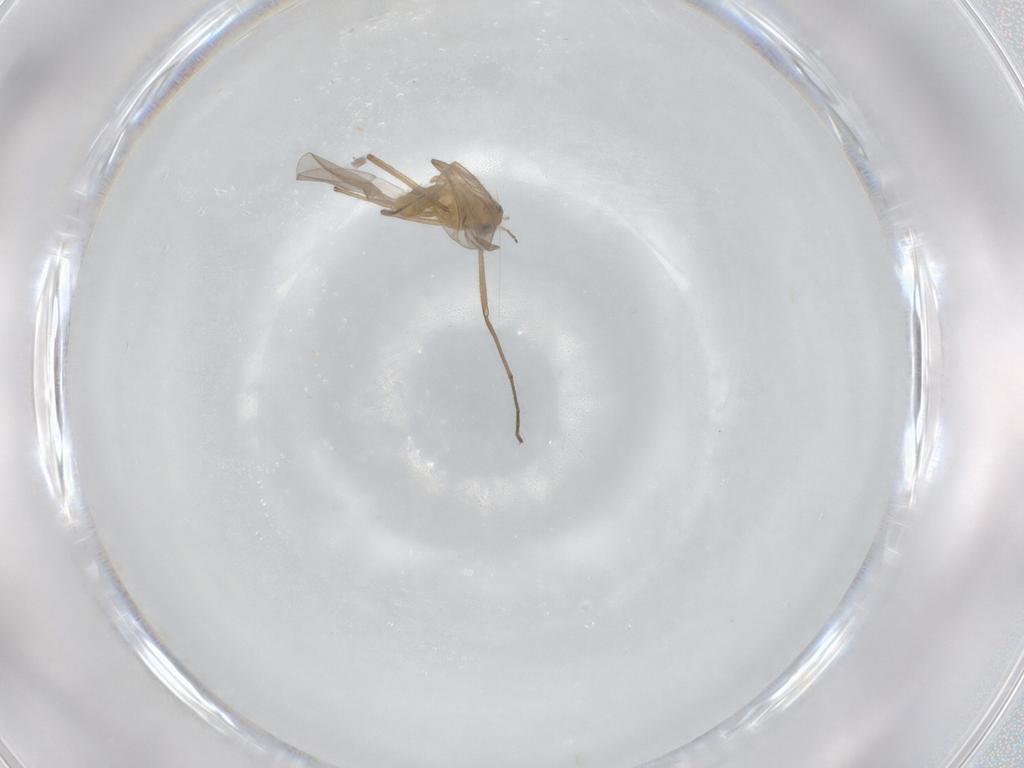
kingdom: Animalia
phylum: Arthropoda
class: Insecta
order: Diptera
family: Chironomidae
